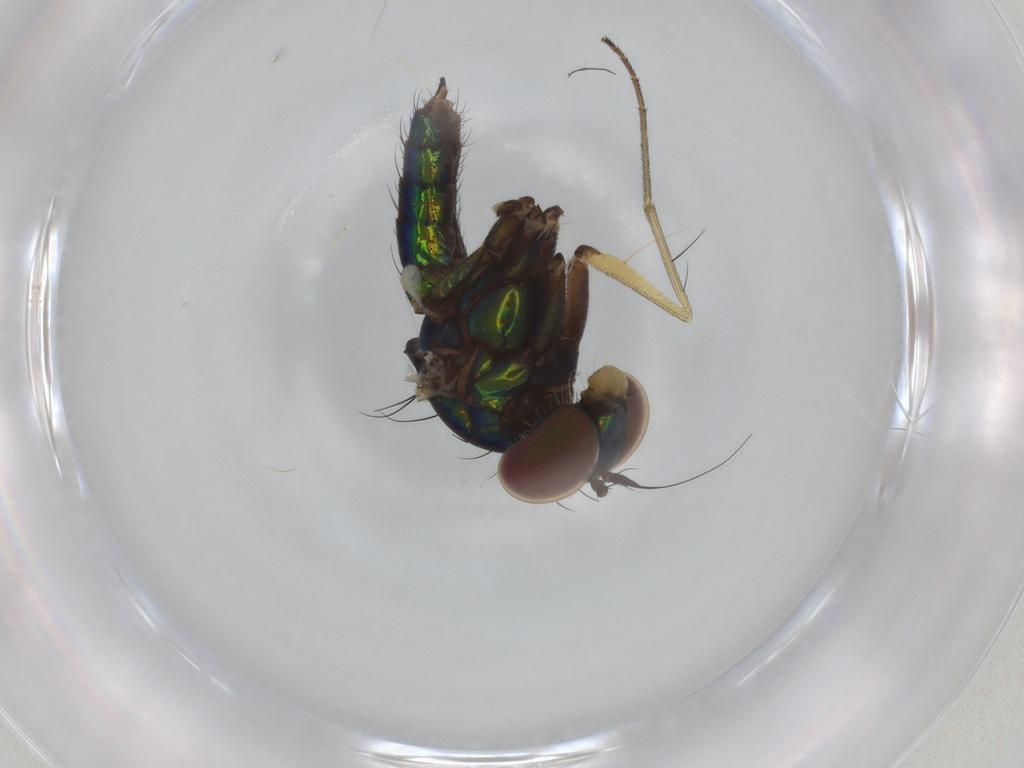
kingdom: Animalia
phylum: Arthropoda
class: Insecta
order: Diptera
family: Dolichopodidae
